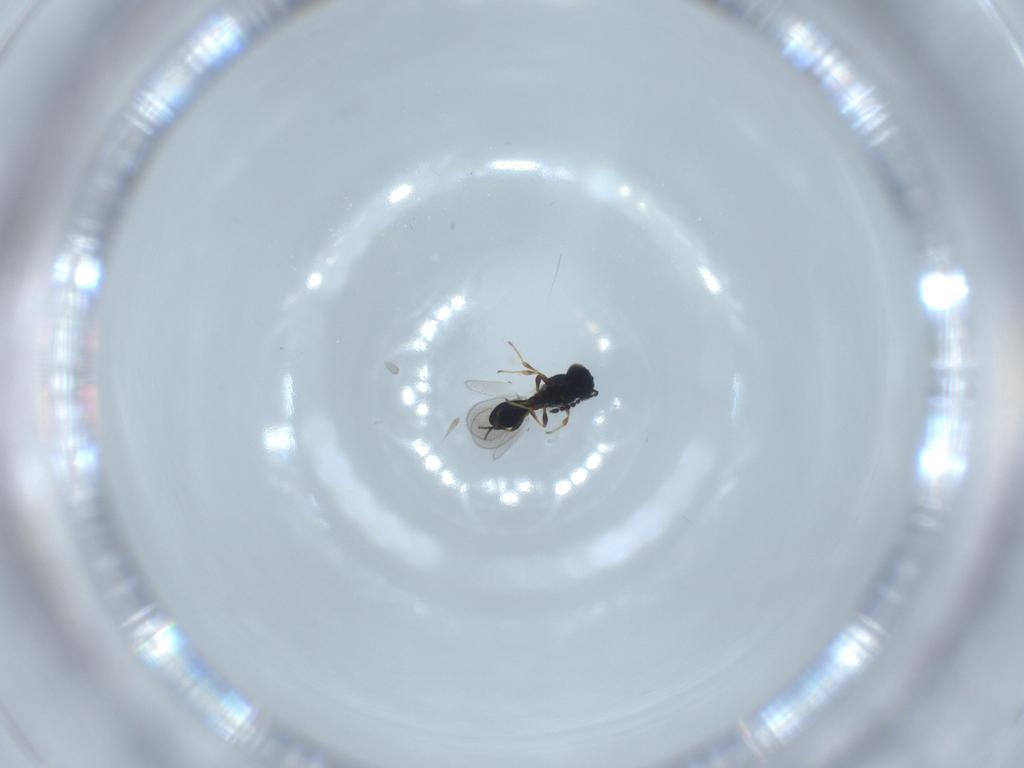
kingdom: Animalia
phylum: Arthropoda
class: Insecta
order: Hymenoptera
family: Platygastridae
